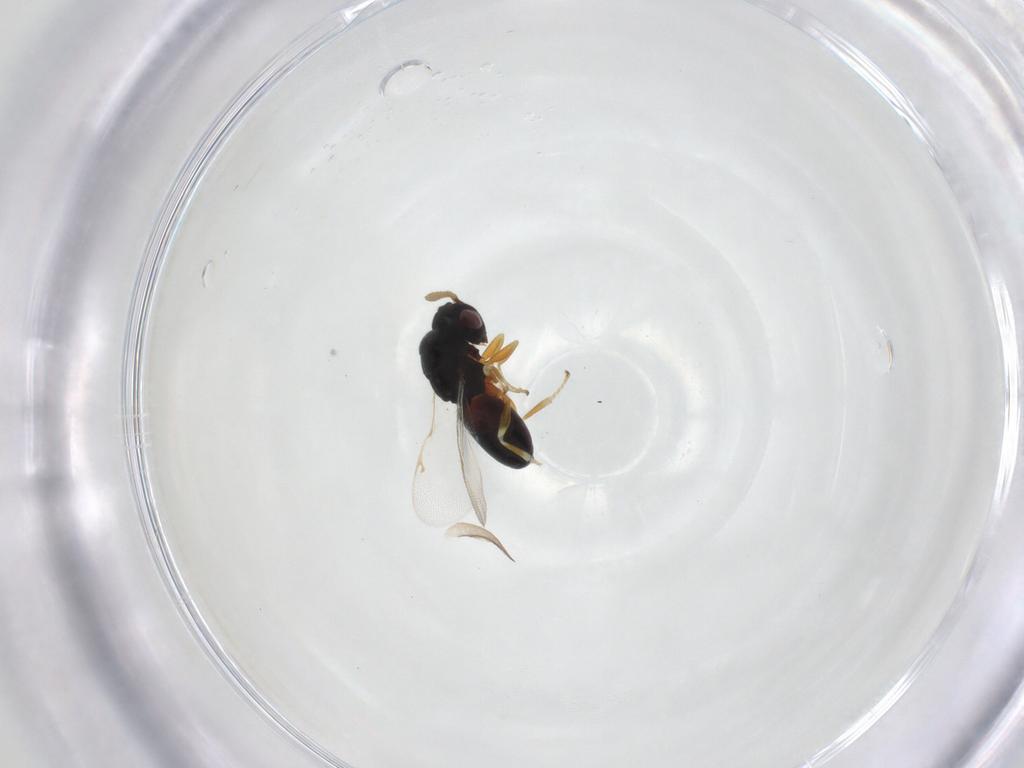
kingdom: Animalia
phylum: Arthropoda
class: Insecta
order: Hymenoptera
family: Eurytomidae
